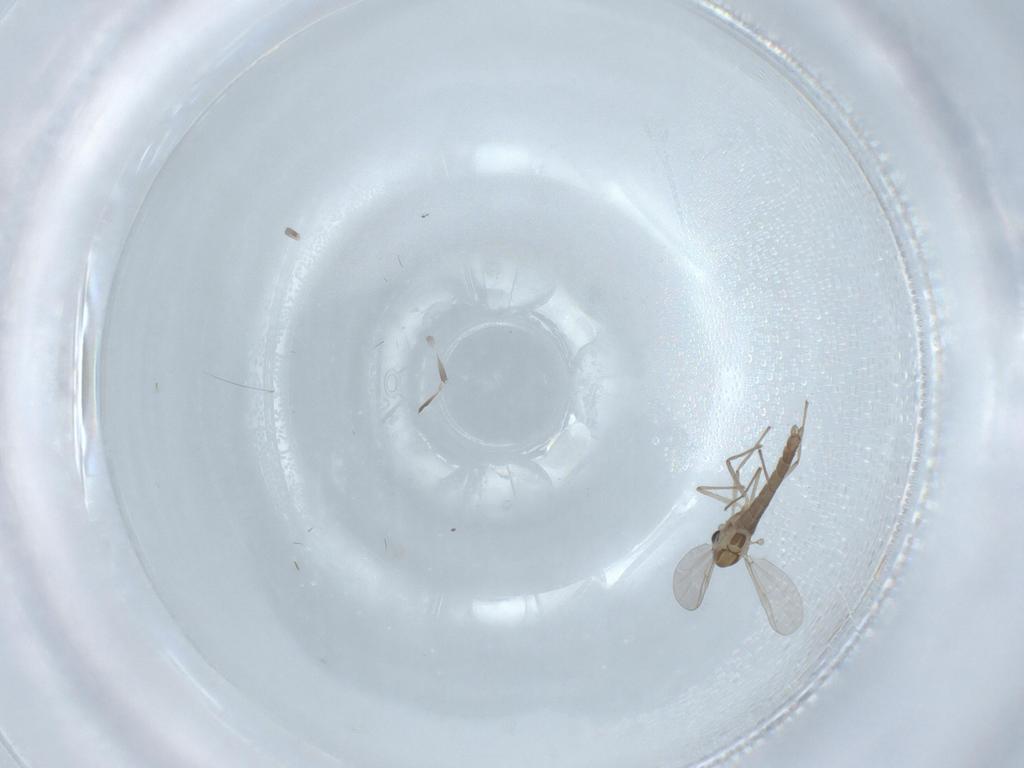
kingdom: Animalia
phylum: Arthropoda
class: Insecta
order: Diptera
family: Chironomidae
